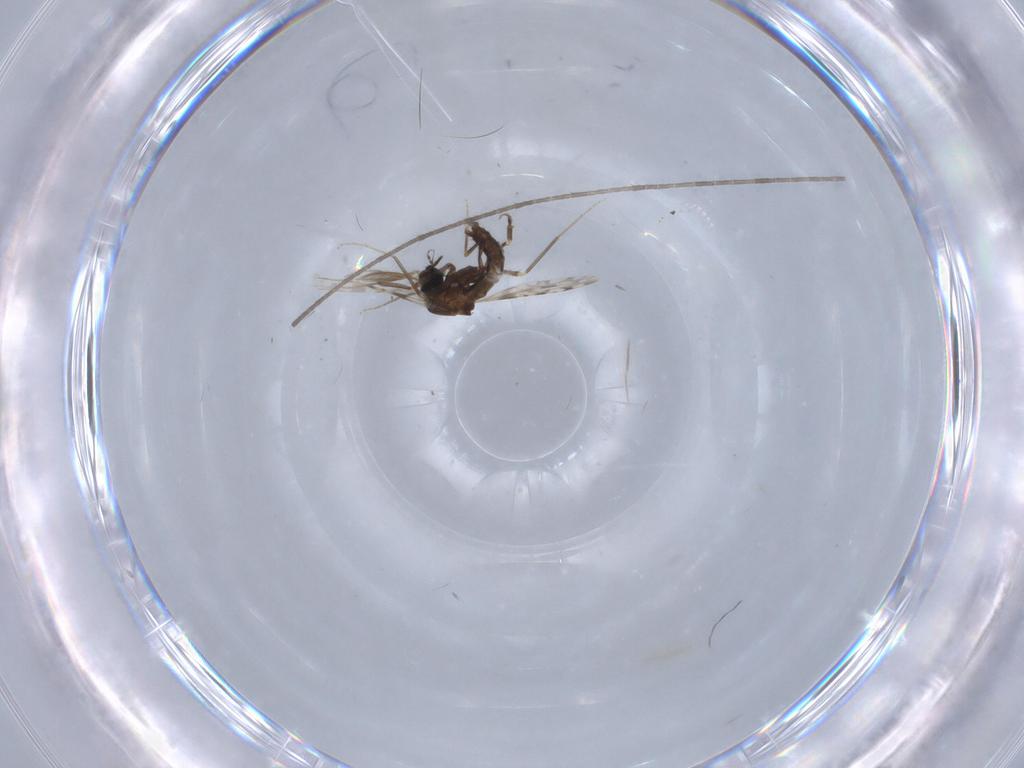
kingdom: Animalia
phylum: Arthropoda
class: Insecta
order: Diptera
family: Ceratopogonidae
